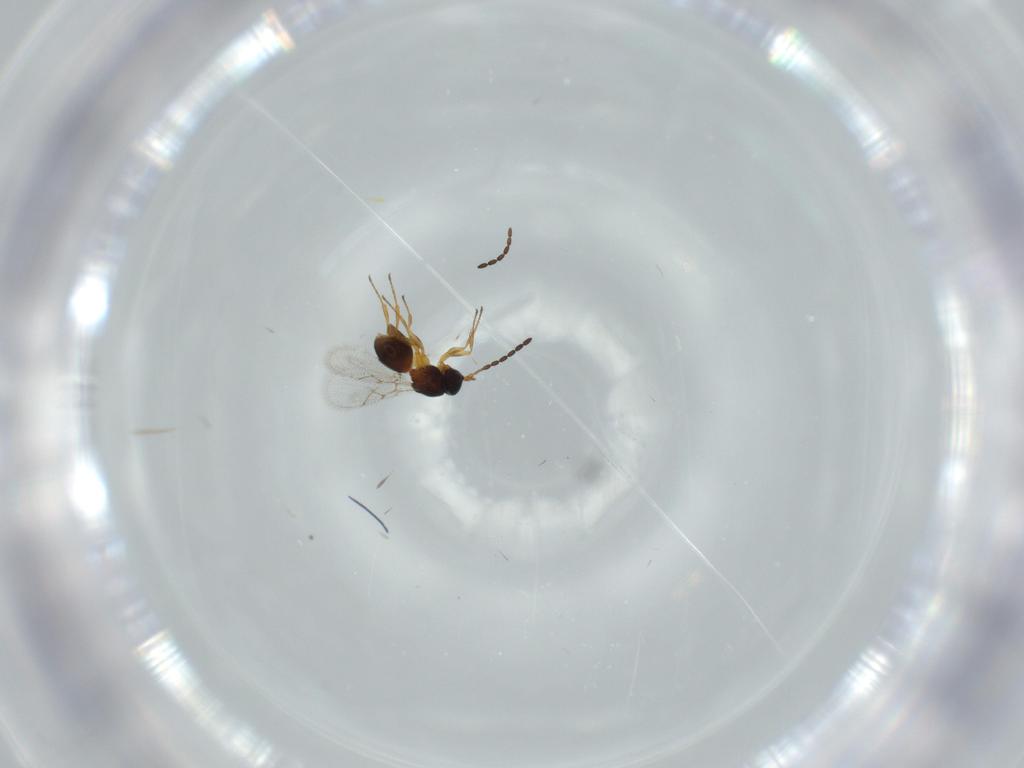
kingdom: Animalia
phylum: Arthropoda
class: Insecta
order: Hymenoptera
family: Figitidae
